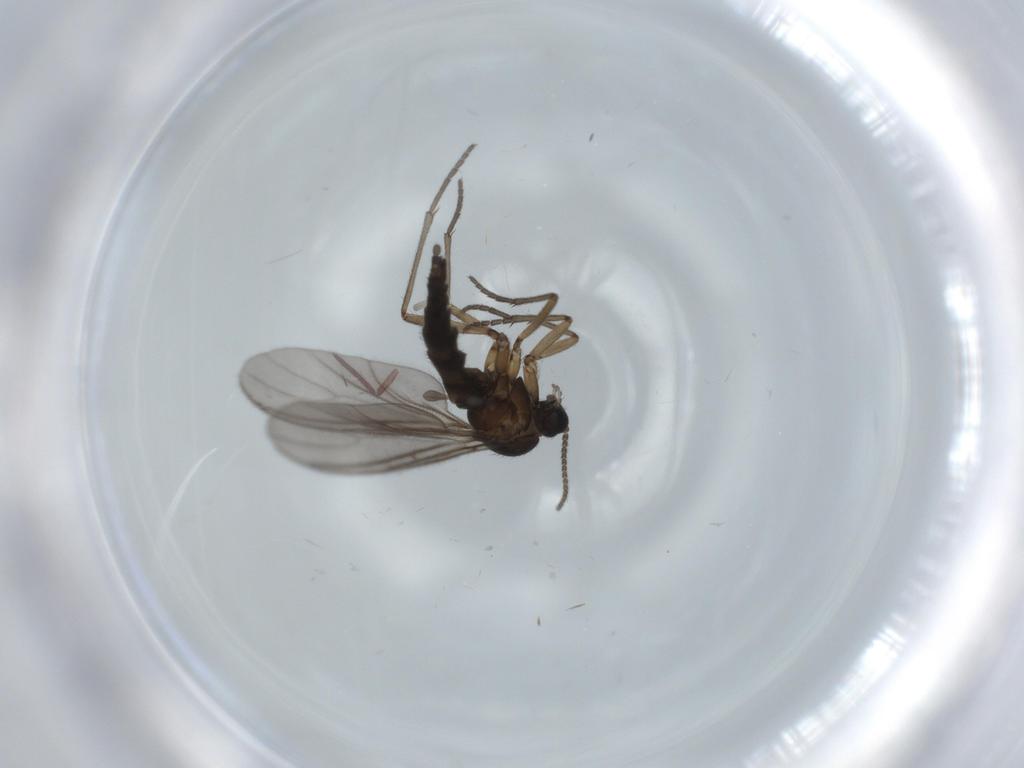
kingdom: Animalia
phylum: Arthropoda
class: Insecta
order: Diptera
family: Sciaridae
